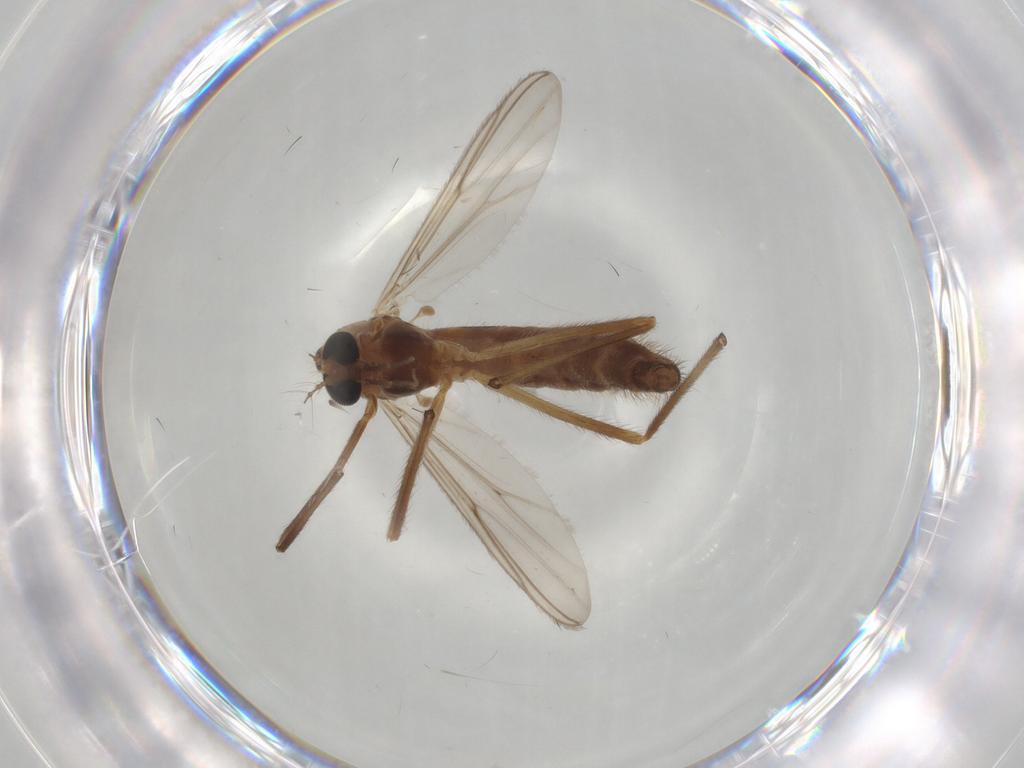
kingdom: Animalia
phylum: Arthropoda
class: Insecta
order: Diptera
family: Chironomidae
